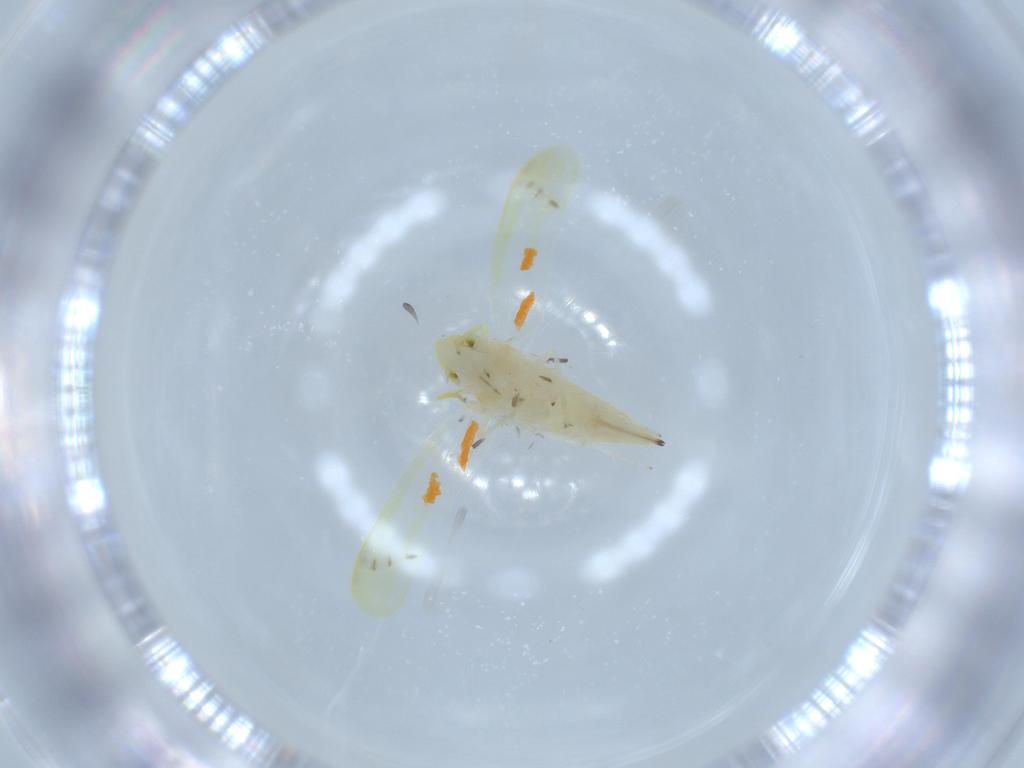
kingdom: Animalia
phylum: Arthropoda
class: Insecta
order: Hemiptera
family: Cicadellidae
